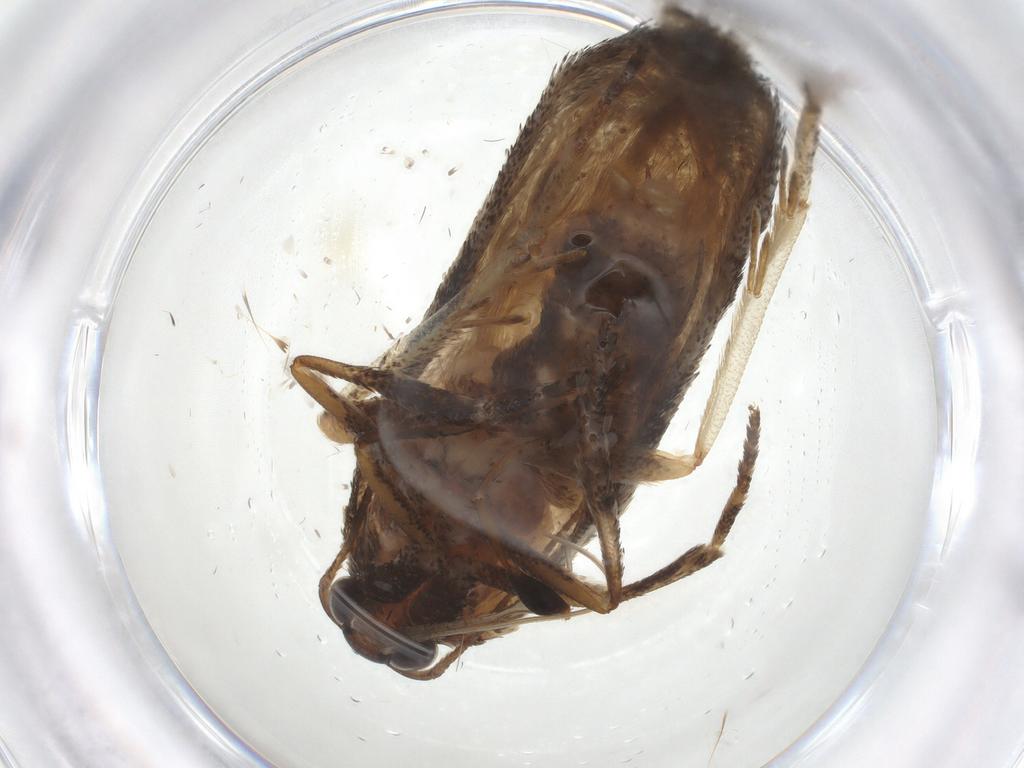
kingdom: Animalia
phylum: Arthropoda
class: Insecta
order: Lepidoptera
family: Cosmopterigidae
